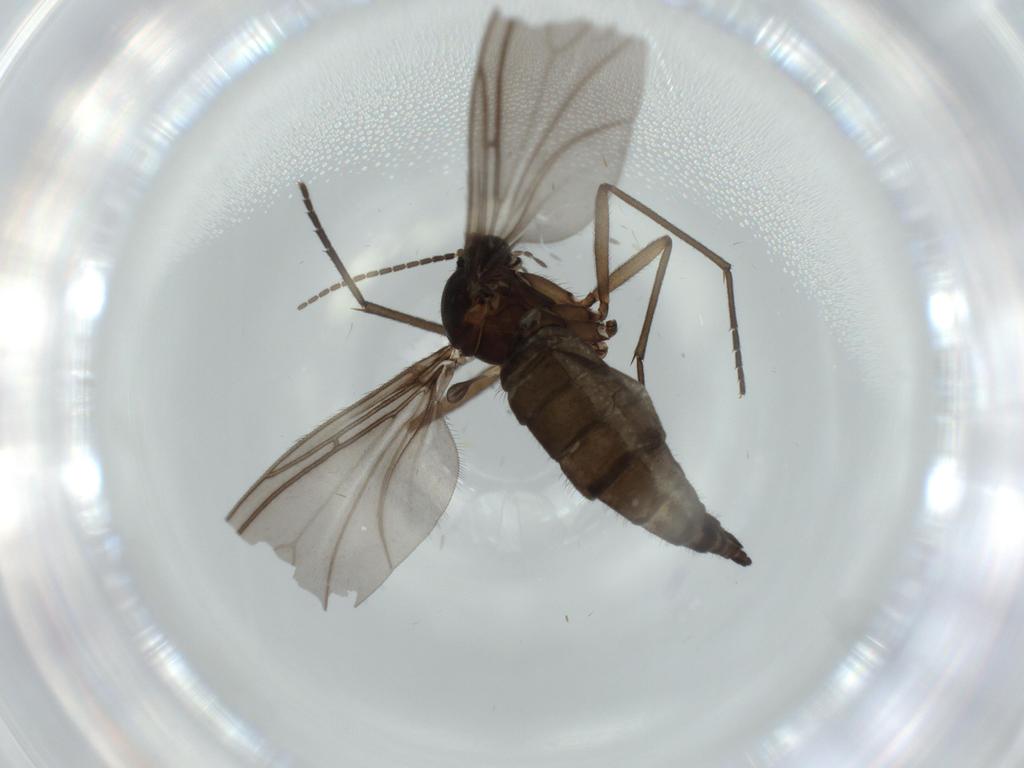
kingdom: Animalia
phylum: Arthropoda
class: Insecta
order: Diptera
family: Sciaridae
